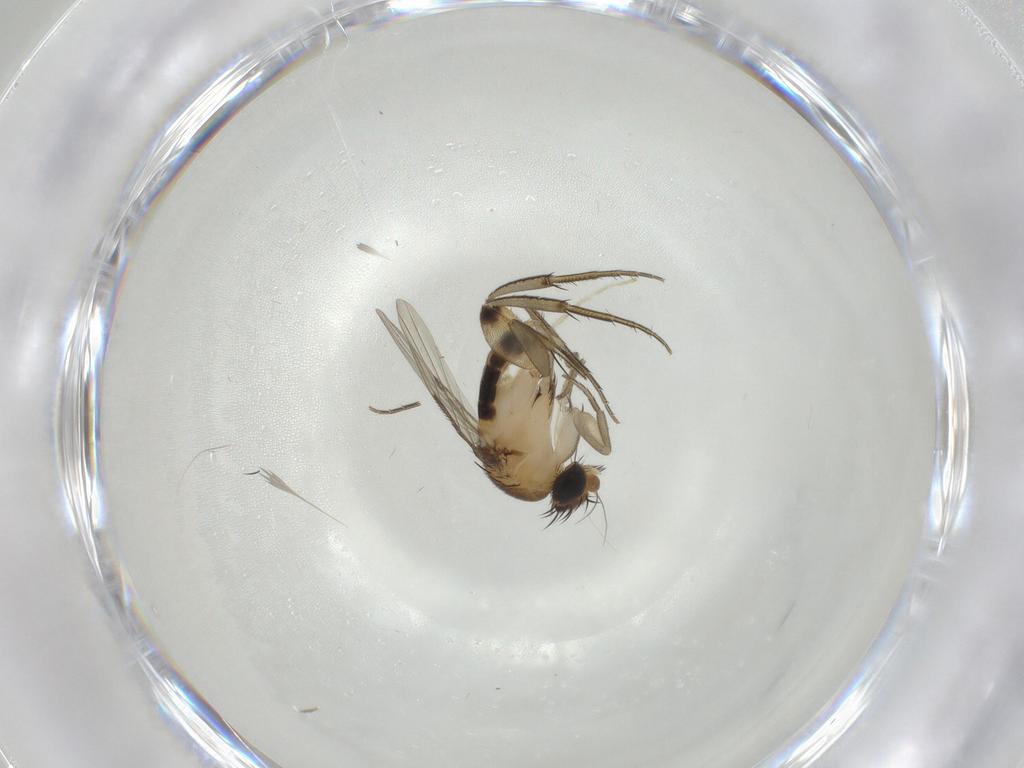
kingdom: Animalia
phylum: Arthropoda
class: Insecta
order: Diptera
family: Phoridae
